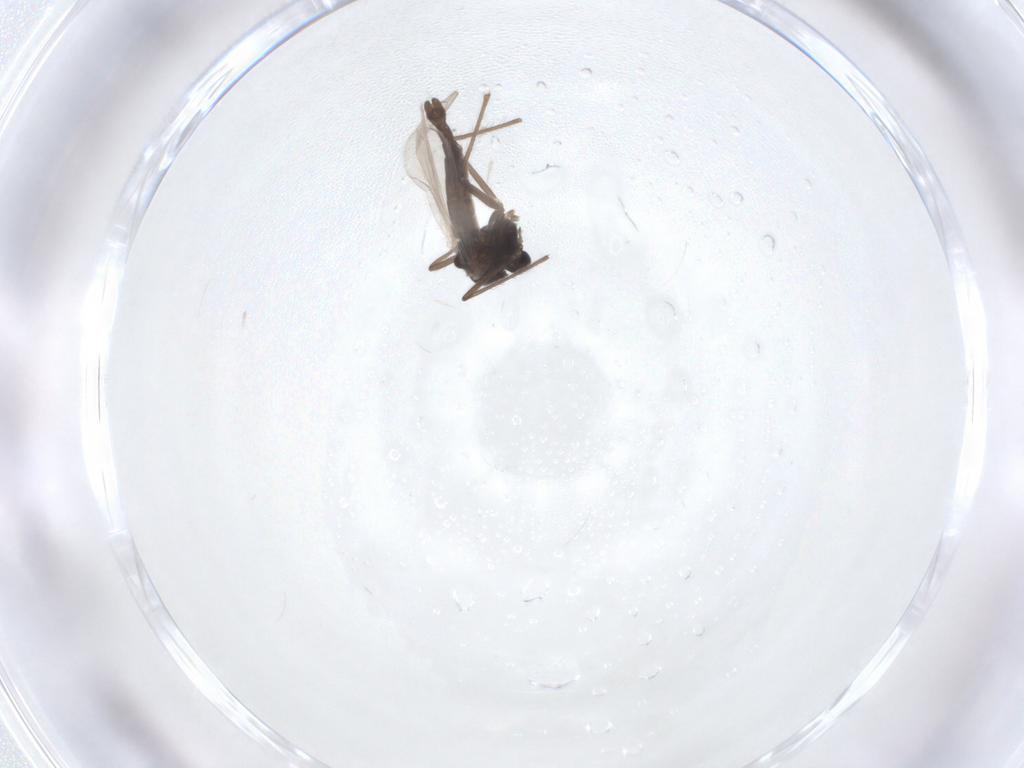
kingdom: Animalia
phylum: Arthropoda
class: Insecta
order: Diptera
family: Chironomidae
